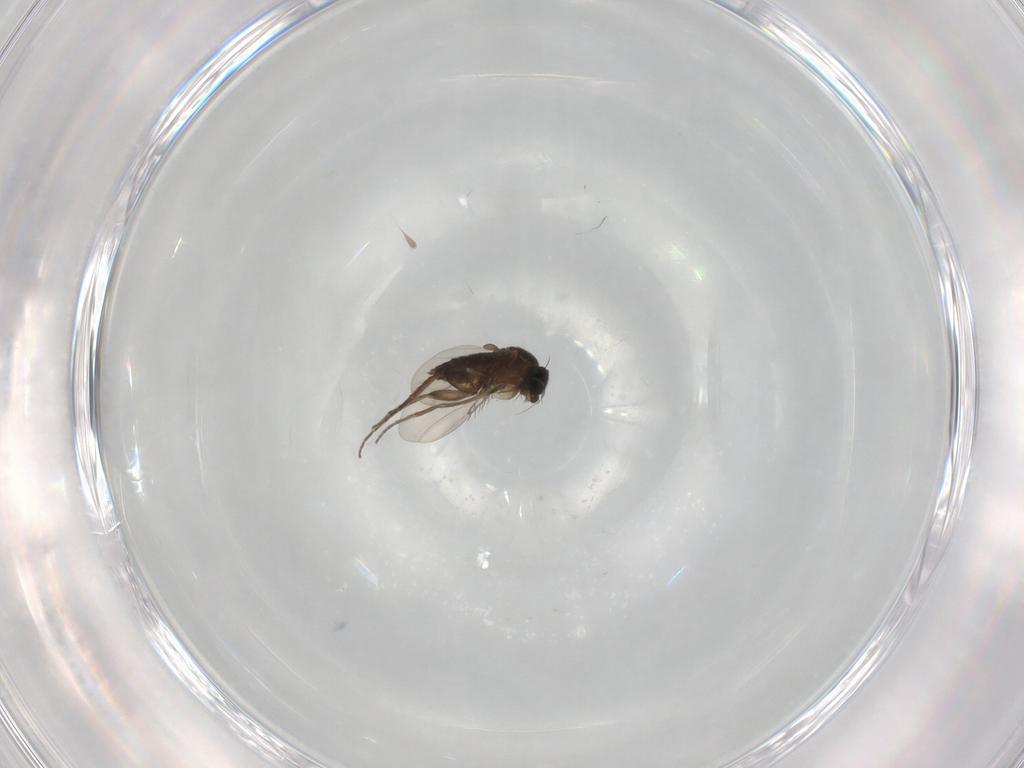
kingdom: Animalia
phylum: Arthropoda
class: Insecta
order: Diptera
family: Phoridae
